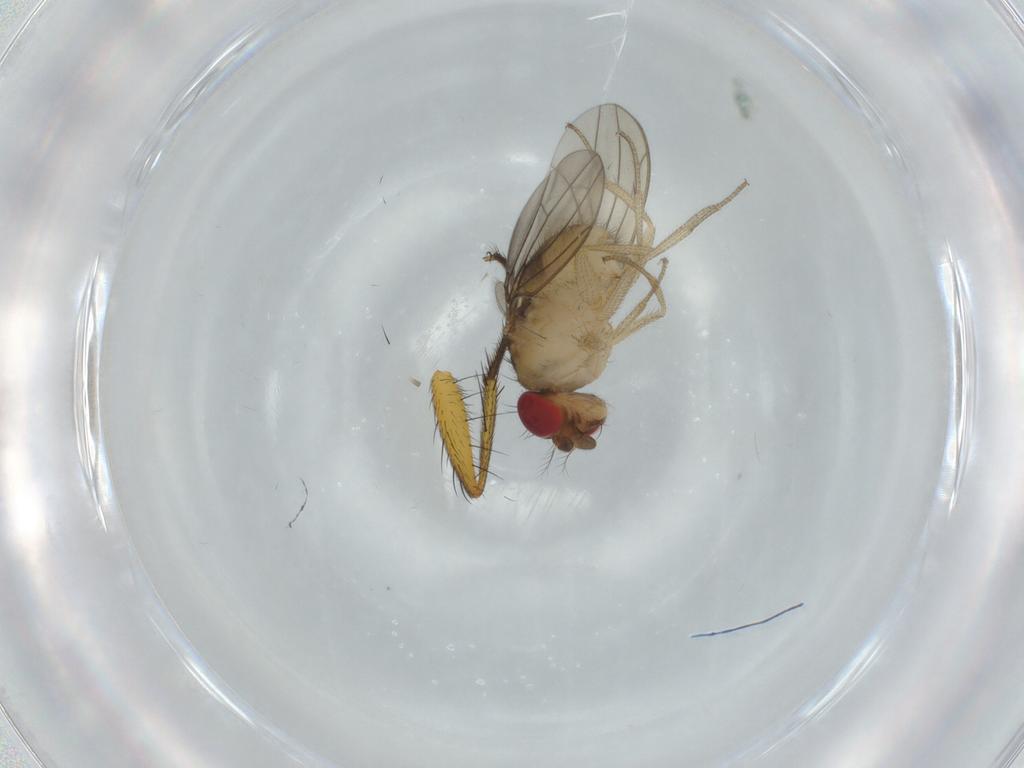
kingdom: Animalia
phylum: Arthropoda
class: Insecta
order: Diptera
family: Drosophilidae
